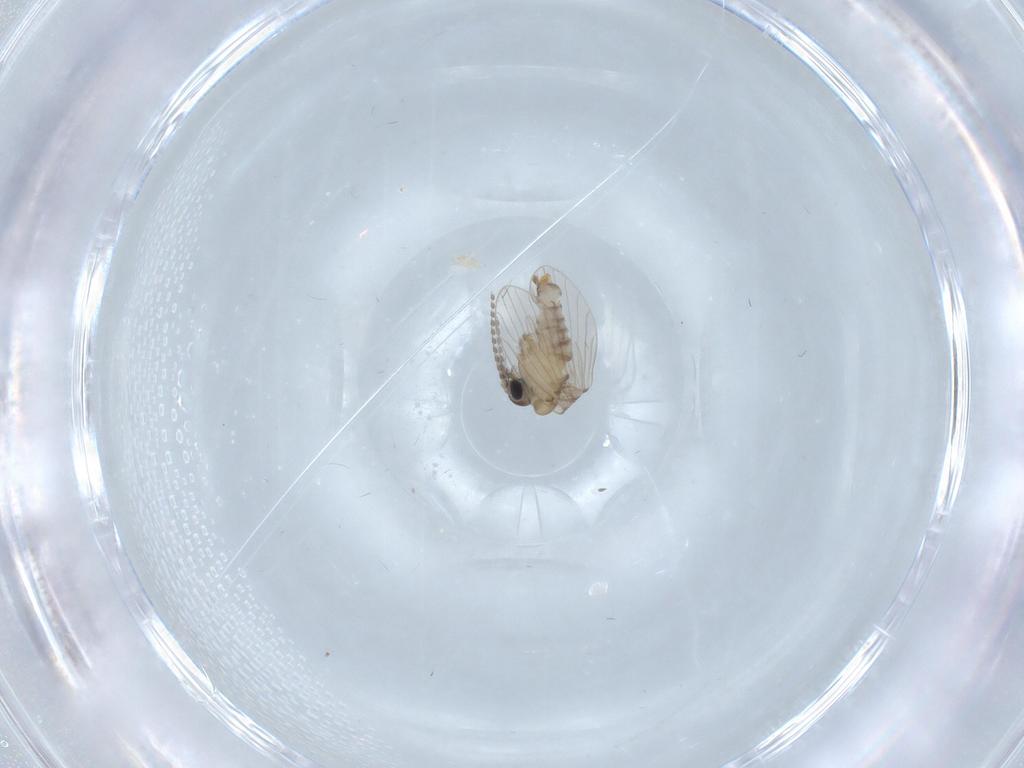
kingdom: Animalia
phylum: Arthropoda
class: Insecta
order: Diptera
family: Psychodidae
